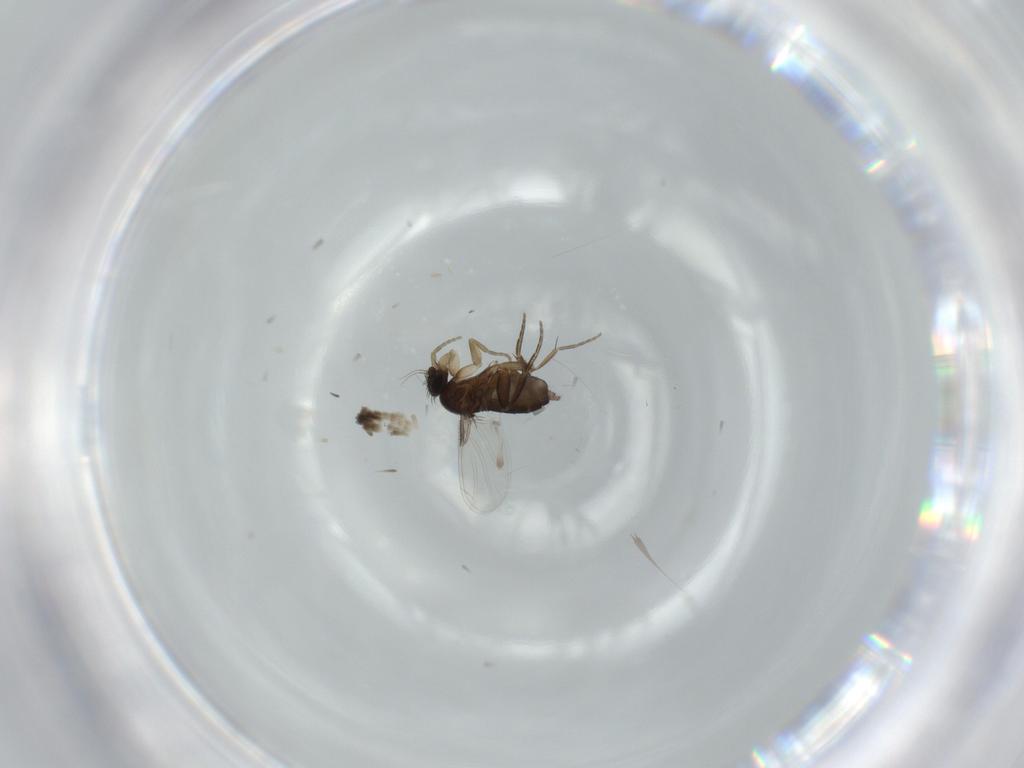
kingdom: Animalia
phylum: Arthropoda
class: Insecta
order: Diptera
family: Phoridae
